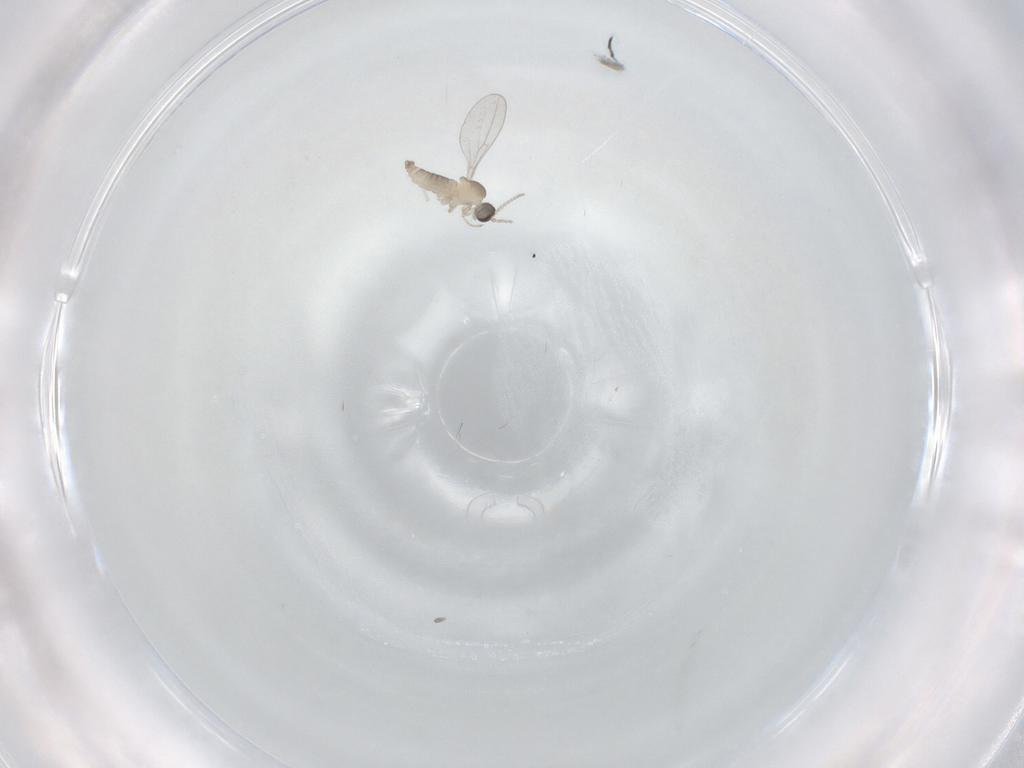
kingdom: Animalia
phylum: Arthropoda
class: Insecta
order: Diptera
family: Cecidomyiidae
